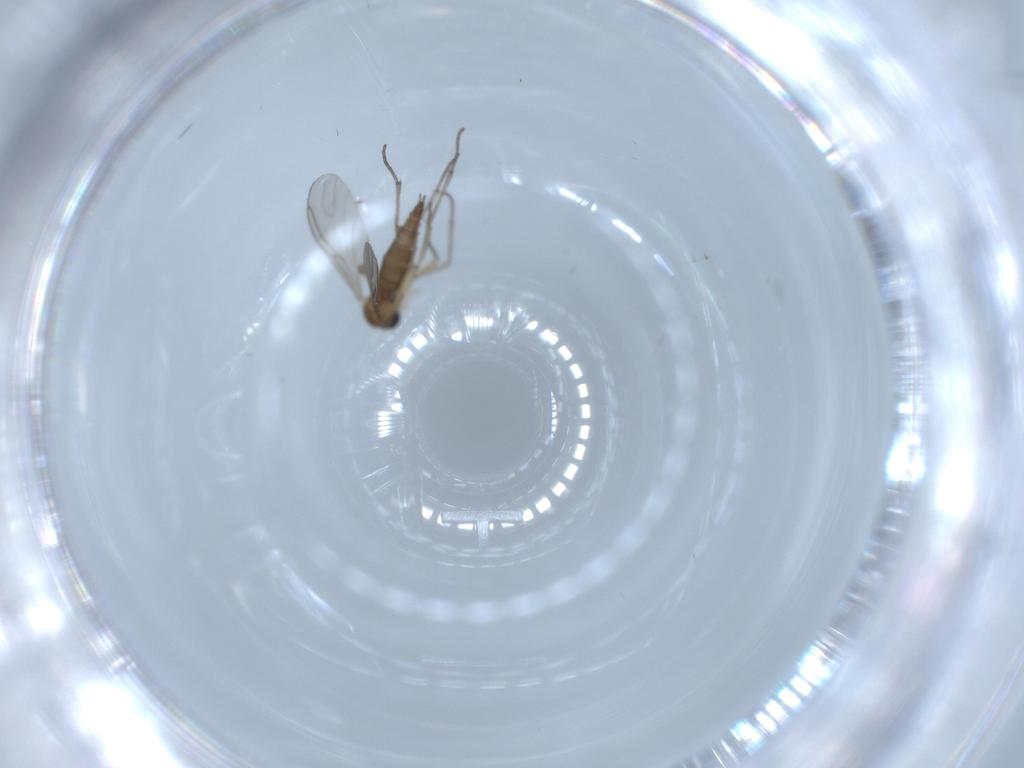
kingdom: Animalia
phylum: Arthropoda
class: Insecta
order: Diptera
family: Sciaridae
